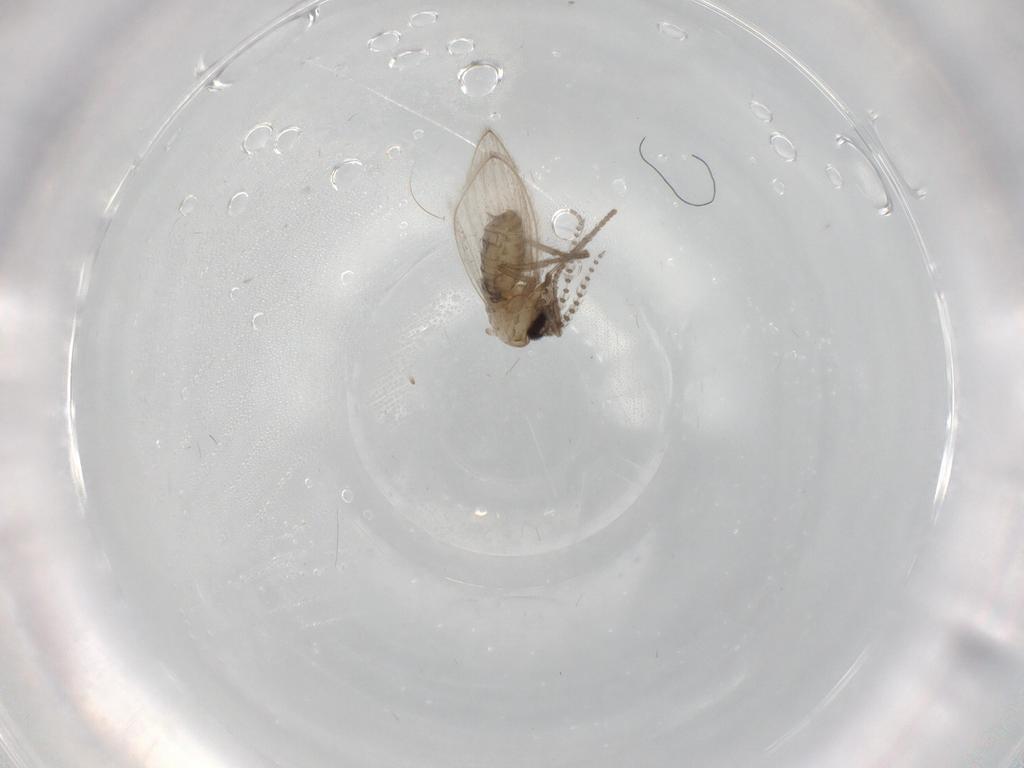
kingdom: Animalia
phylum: Arthropoda
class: Insecta
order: Diptera
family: Psychodidae
